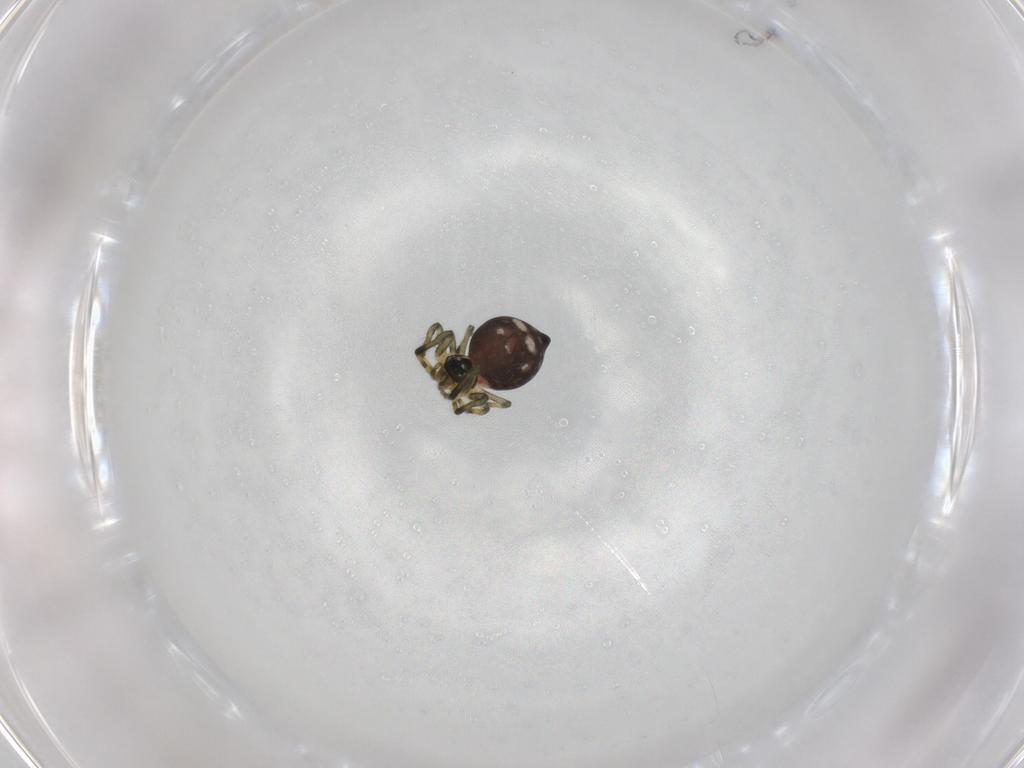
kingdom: Animalia
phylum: Arthropoda
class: Arachnida
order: Araneae
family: Mysmenidae
